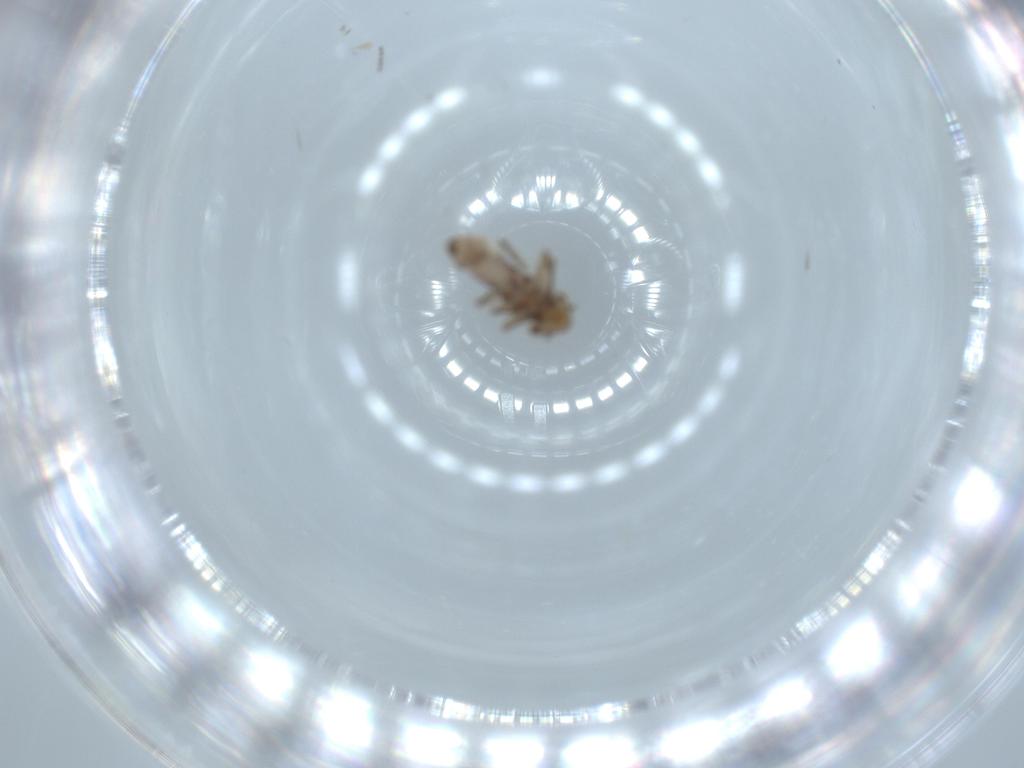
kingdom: Animalia
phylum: Arthropoda
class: Insecta
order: Psocodea
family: Lepidopsocidae
